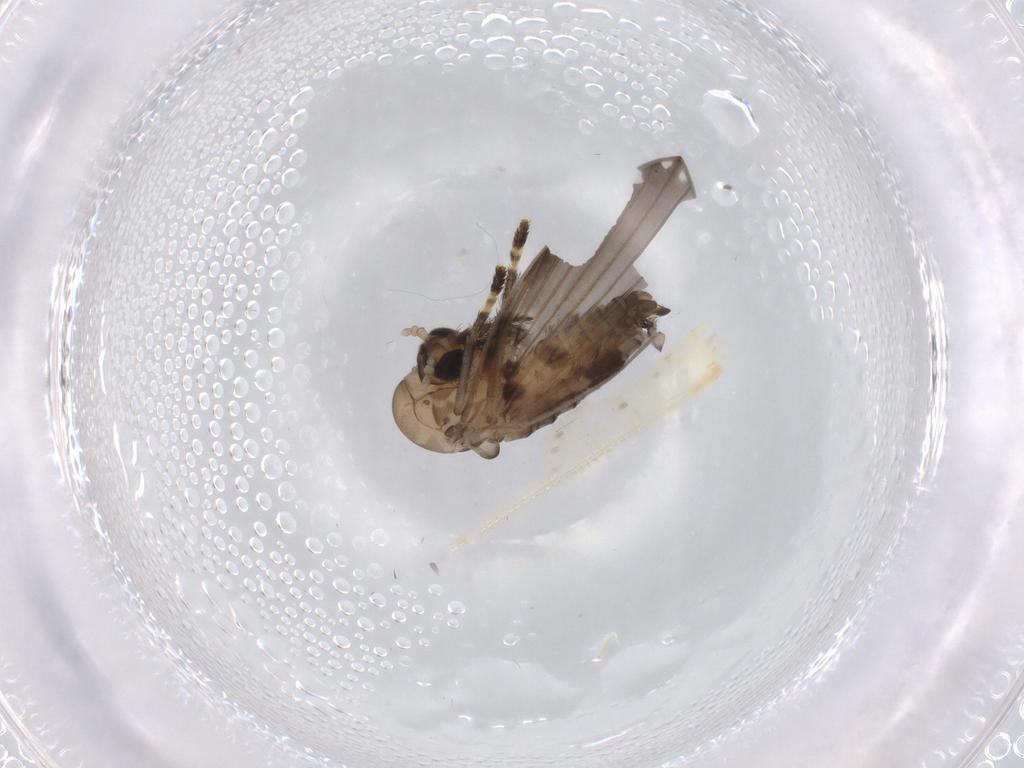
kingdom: Animalia
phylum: Arthropoda
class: Insecta
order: Diptera
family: Psychodidae
